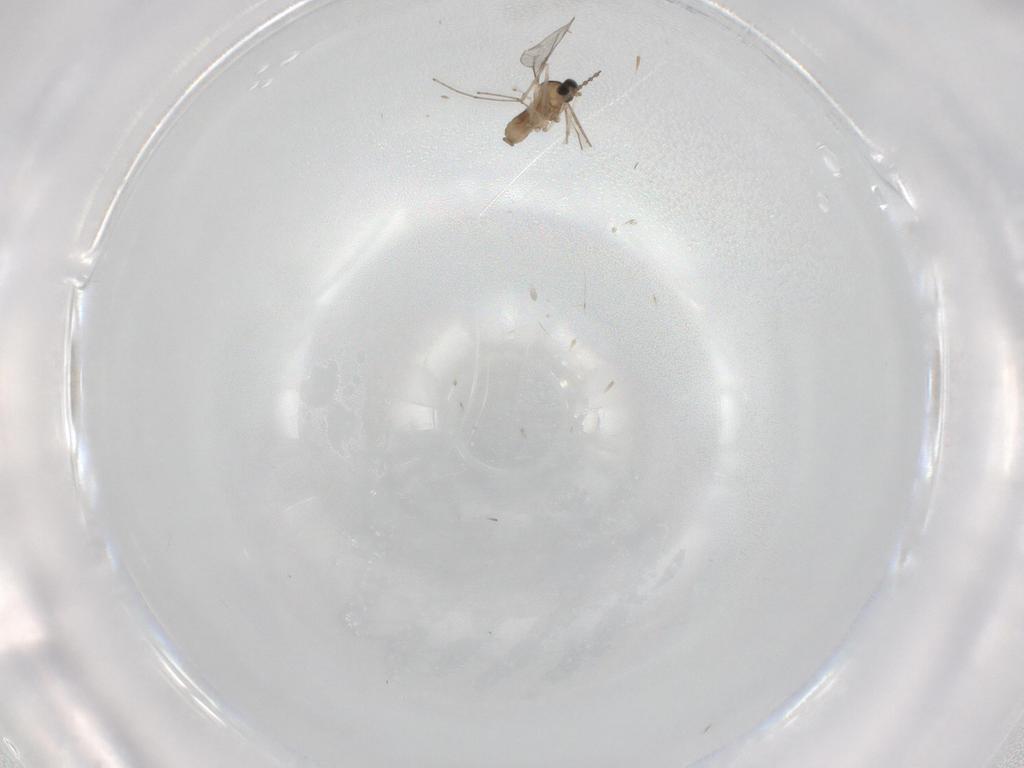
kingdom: Animalia
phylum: Arthropoda
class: Insecta
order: Diptera
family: Cecidomyiidae
